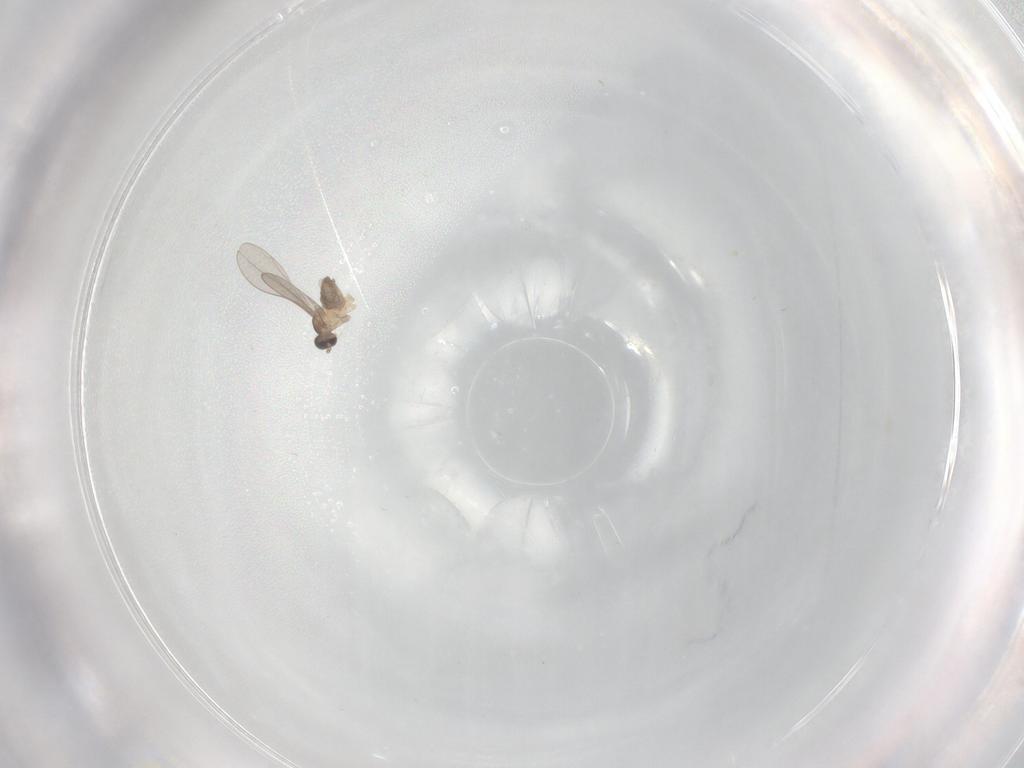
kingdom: Animalia
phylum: Arthropoda
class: Insecta
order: Diptera
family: Cecidomyiidae
